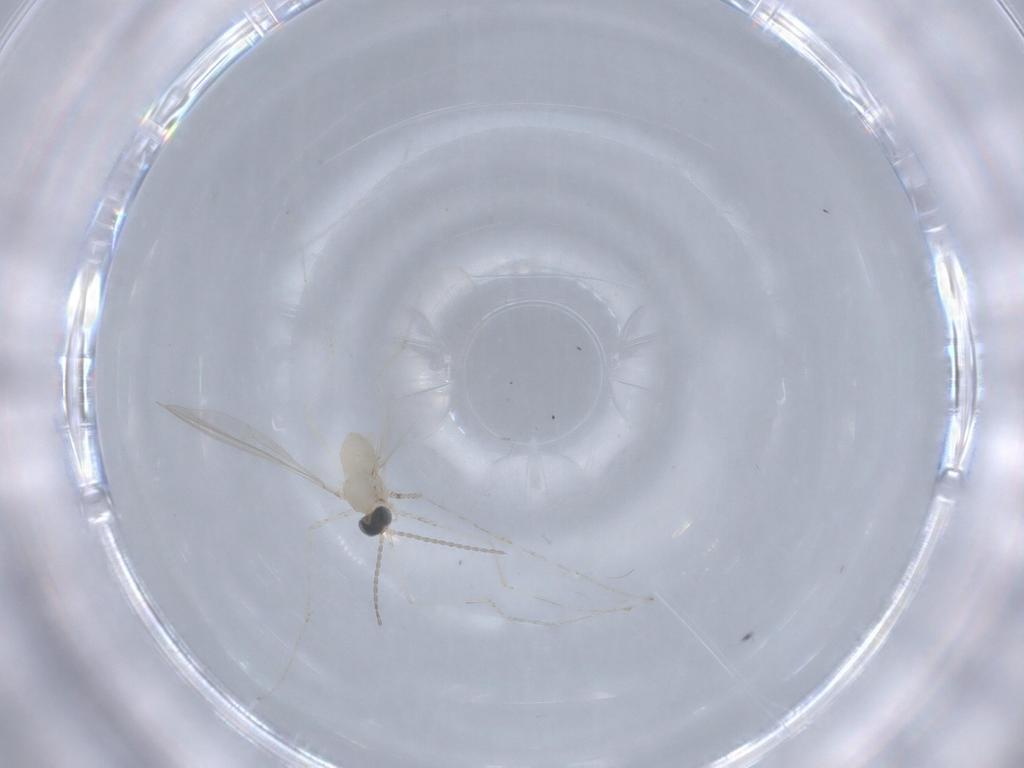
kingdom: Animalia
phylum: Arthropoda
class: Insecta
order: Diptera
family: Cecidomyiidae
